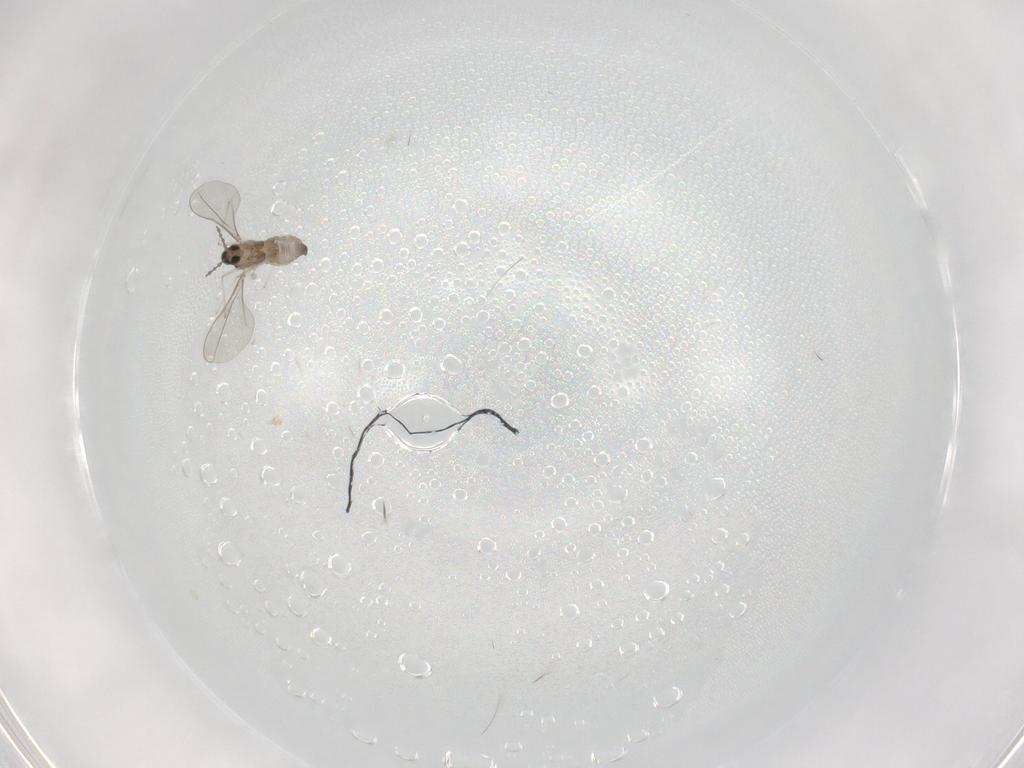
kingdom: Animalia
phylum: Arthropoda
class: Insecta
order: Diptera
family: Cecidomyiidae
